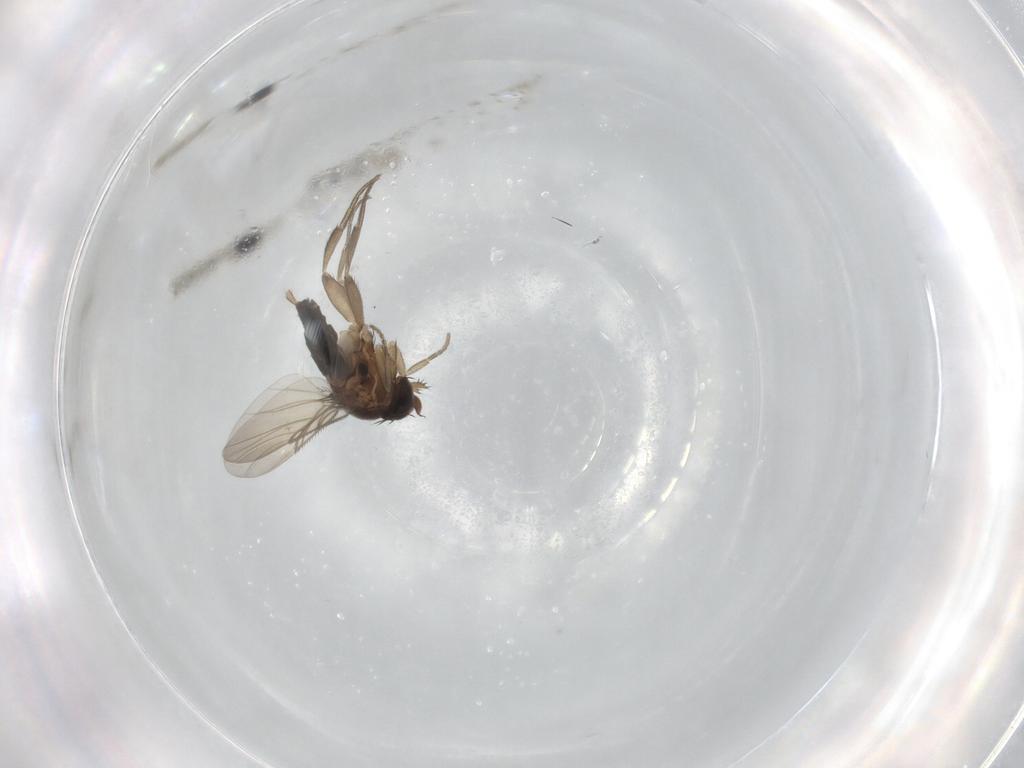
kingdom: Animalia
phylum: Arthropoda
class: Insecta
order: Diptera
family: Phoridae
